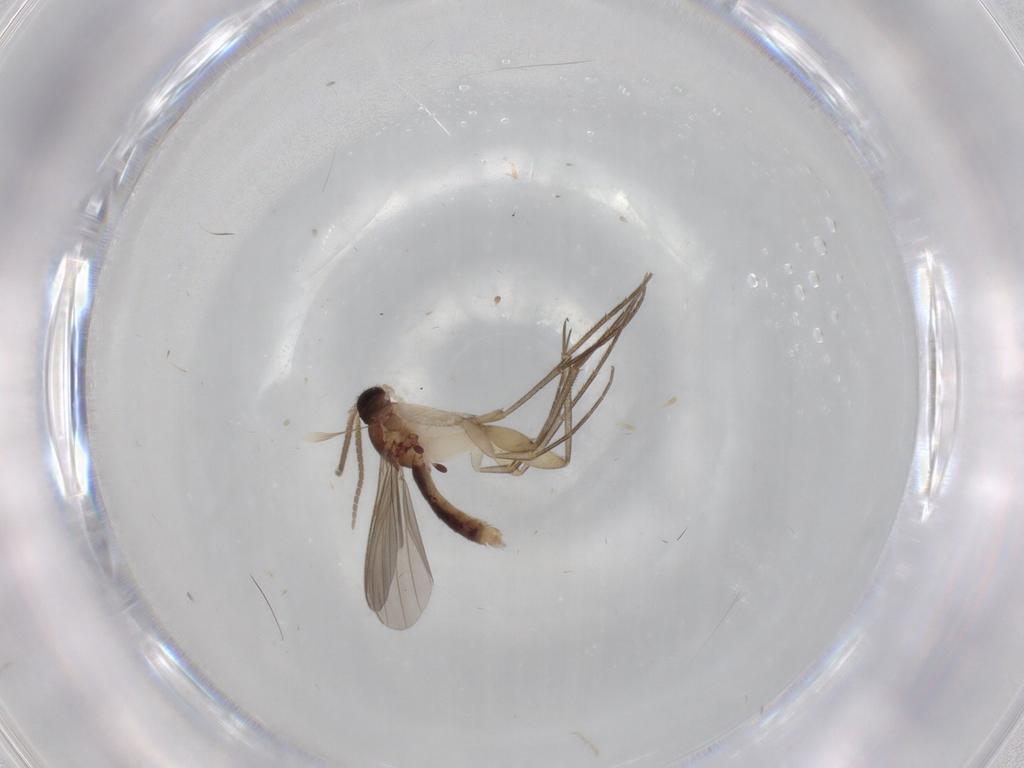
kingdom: Animalia
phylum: Arthropoda
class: Insecta
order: Diptera
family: Mycetophilidae
